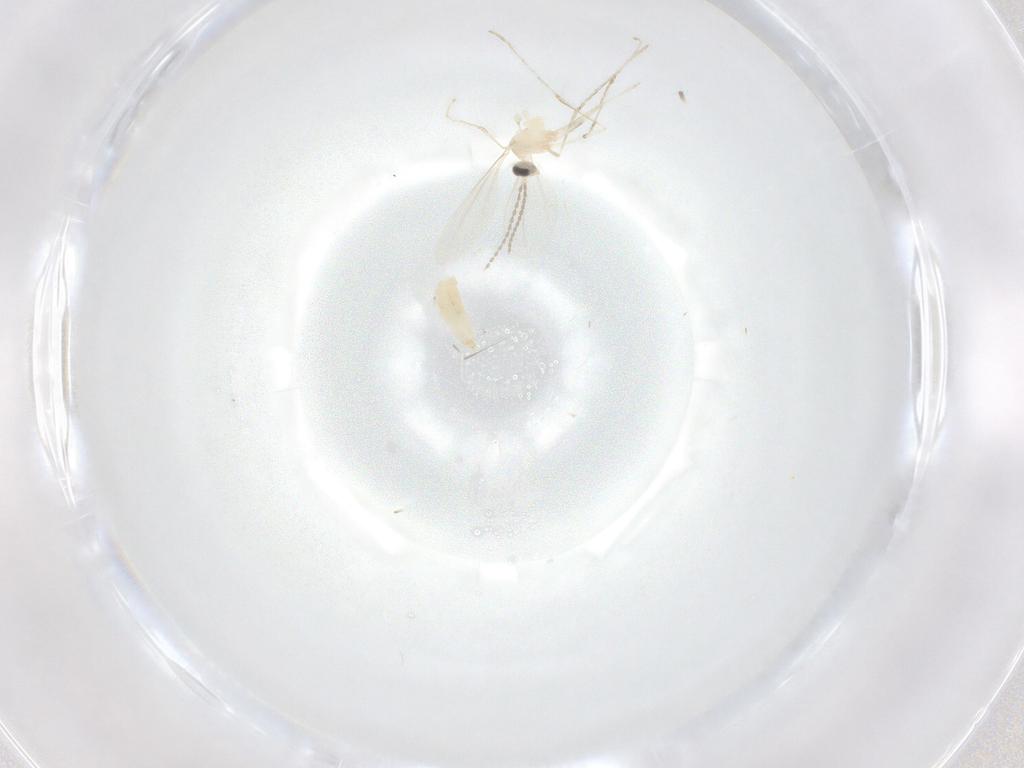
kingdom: Animalia
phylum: Arthropoda
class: Insecta
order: Diptera
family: Cecidomyiidae
